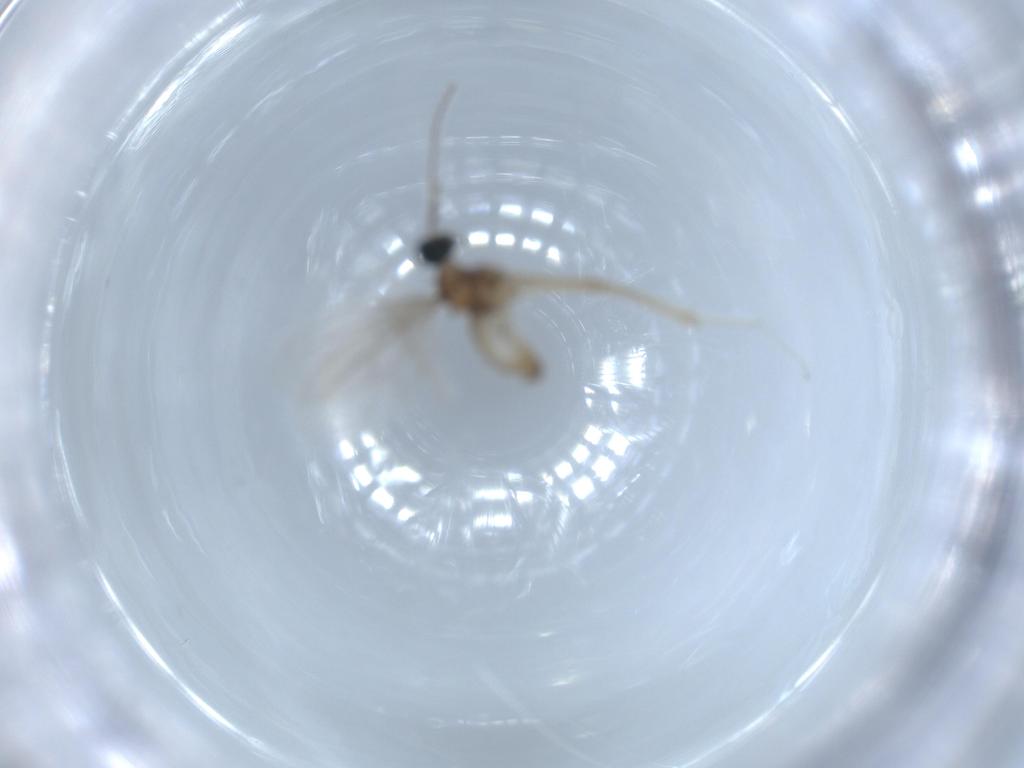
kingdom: Animalia
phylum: Arthropoda
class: Insecta
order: Diptera
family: Cecidomyiidae
